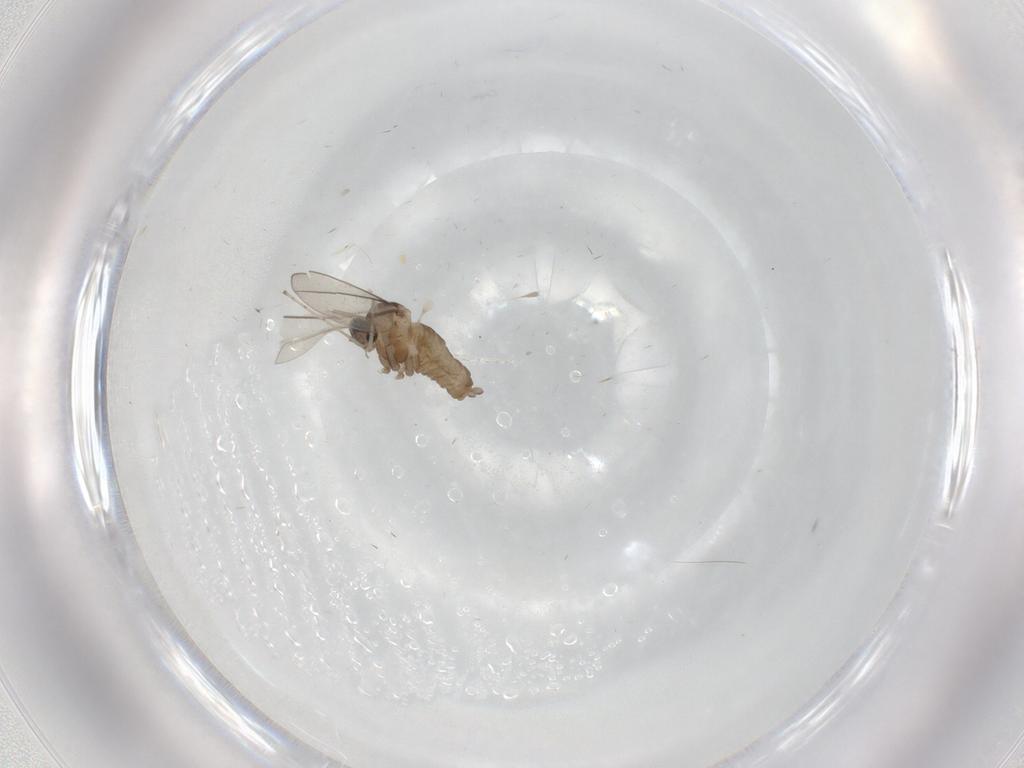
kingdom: Animalia
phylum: Arthropoda
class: Insecta
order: Diptera
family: Cecidomyiidae
